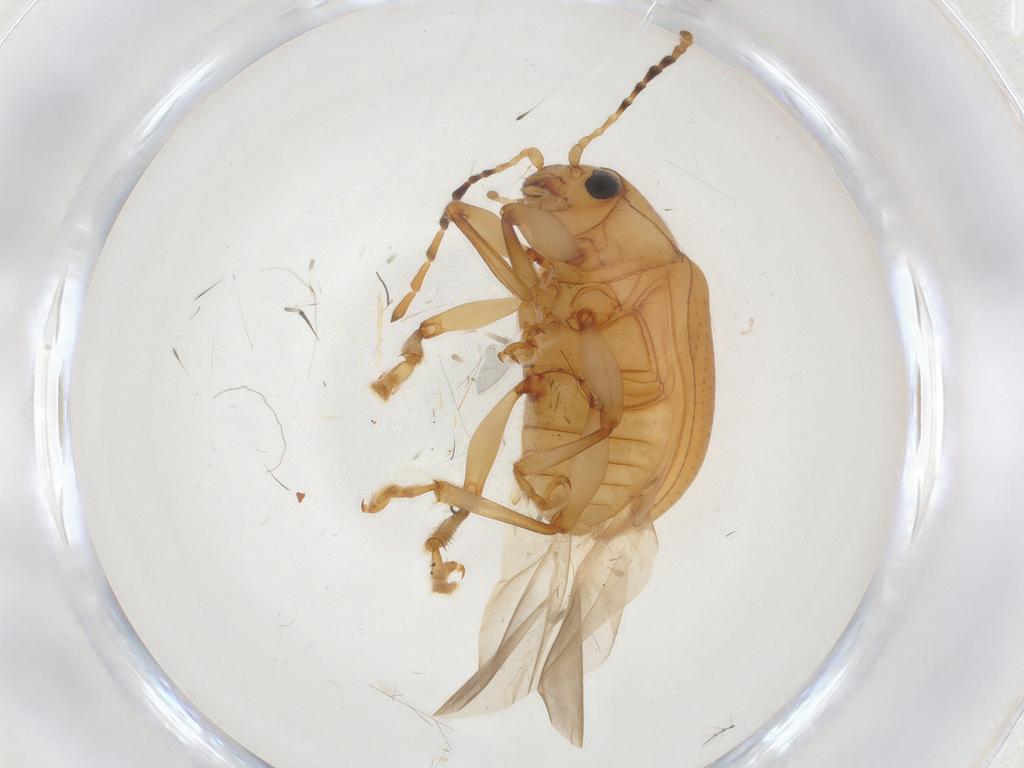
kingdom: Animalia
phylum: Arthropoda
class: Insecta
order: Coleoptera
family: Chrysomelidae
